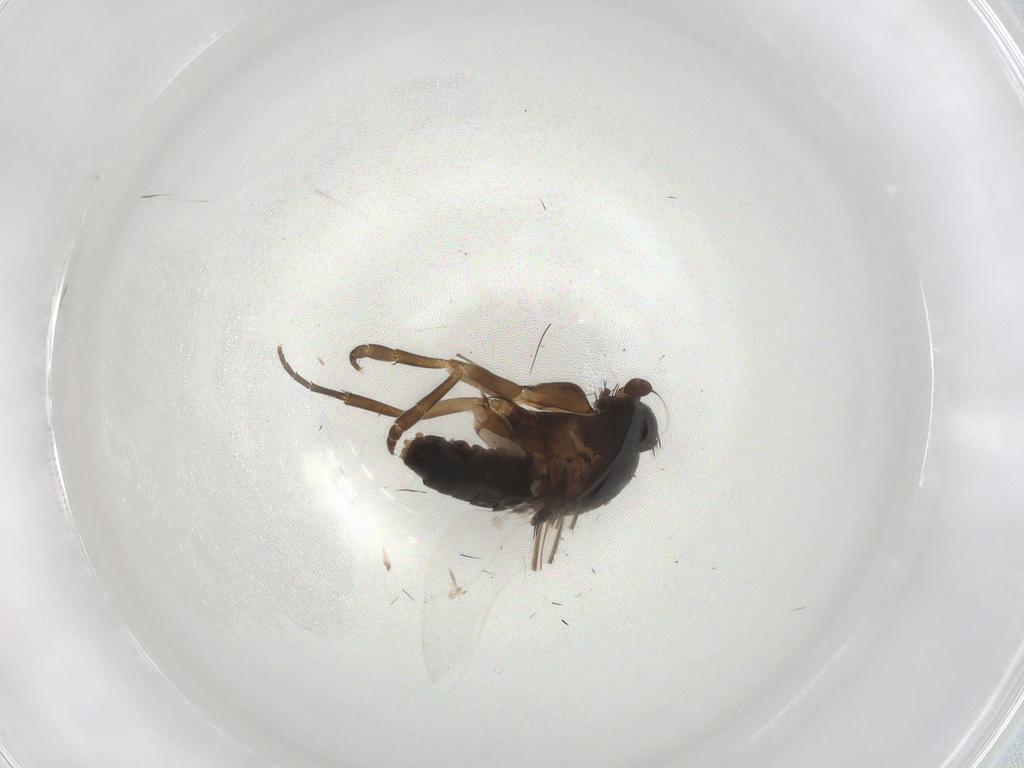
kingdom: Animalia
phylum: Arthropoda
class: Insecta
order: Diptera
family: Phoridae
